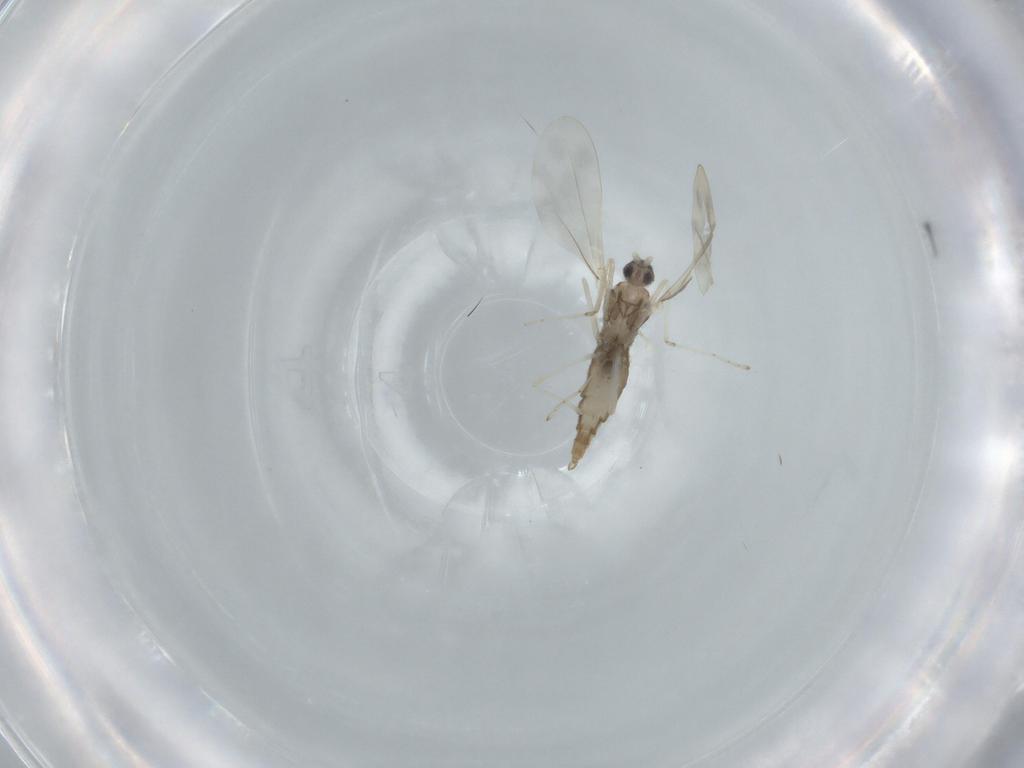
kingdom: Animalia
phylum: Arthropoda
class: Insecta
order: Diptera
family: Cecidomyiidae
